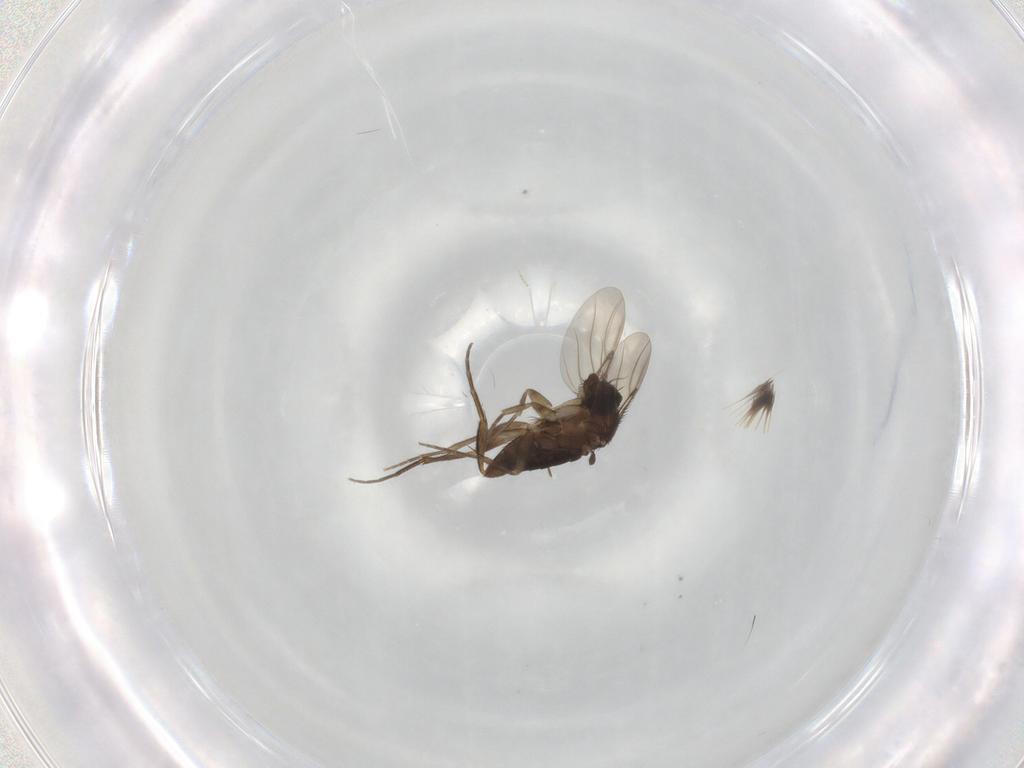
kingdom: Animalia
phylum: Arthropoda
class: Insecta
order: Diptera
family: Phoridae
